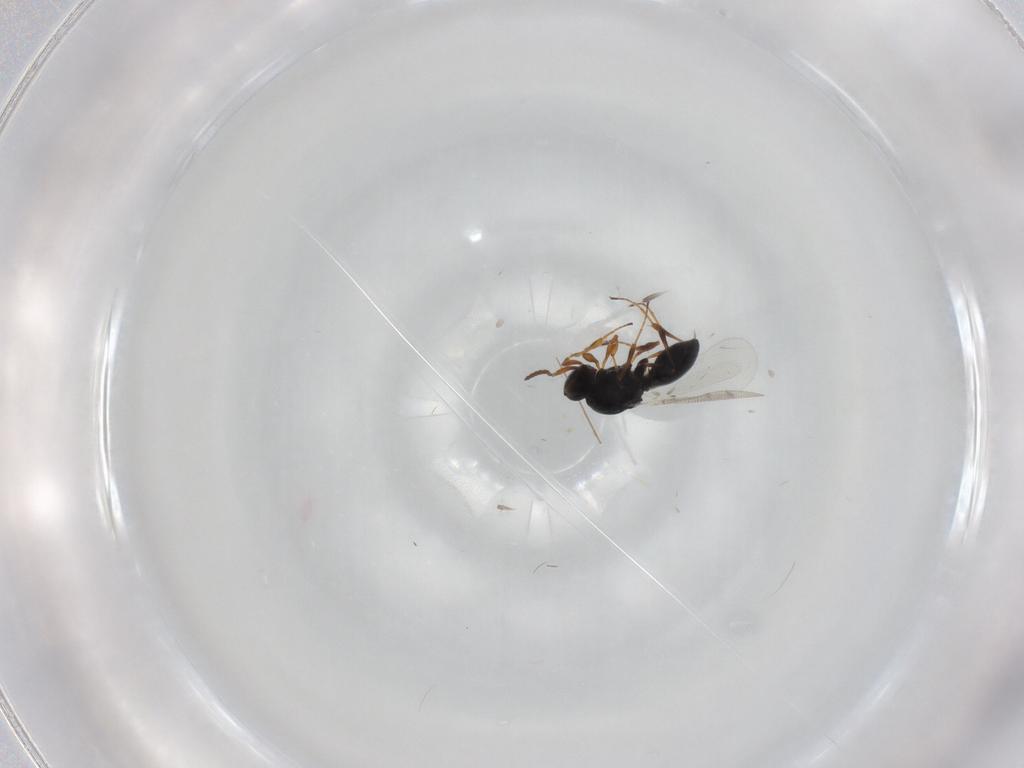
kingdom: Animalia
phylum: Arthropoda
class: Insecta
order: Hymenoptera
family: Platygastridae
